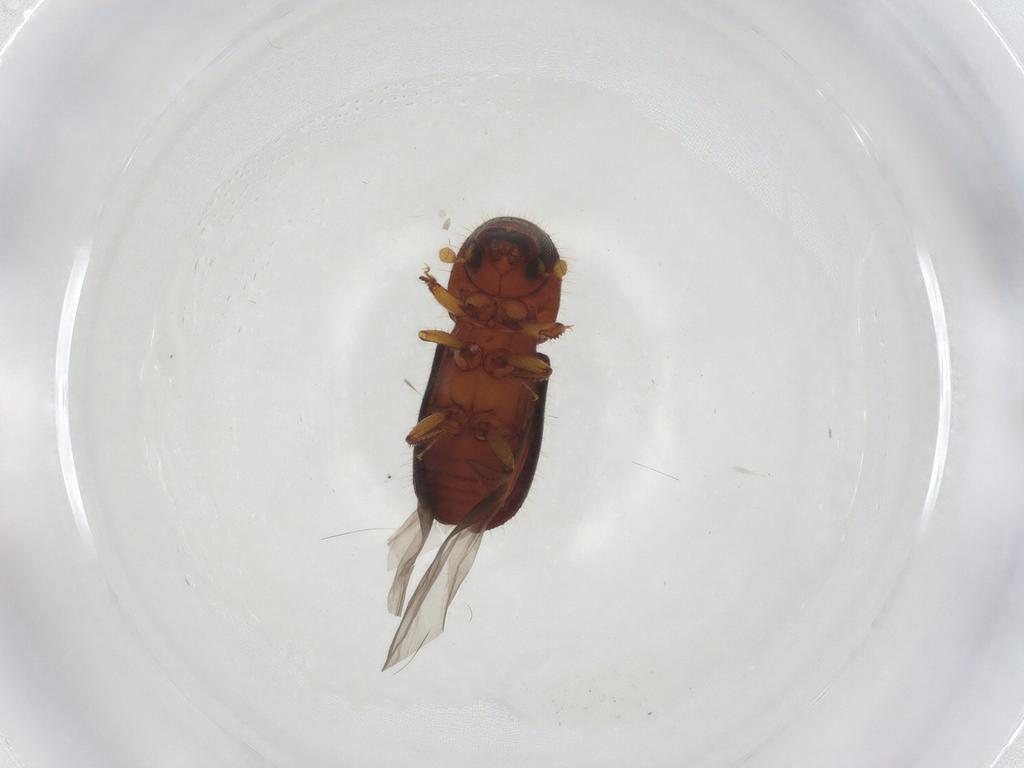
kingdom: Animalia
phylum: Arthropoda
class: Insecta
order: Coleoptera
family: Curculionidae
